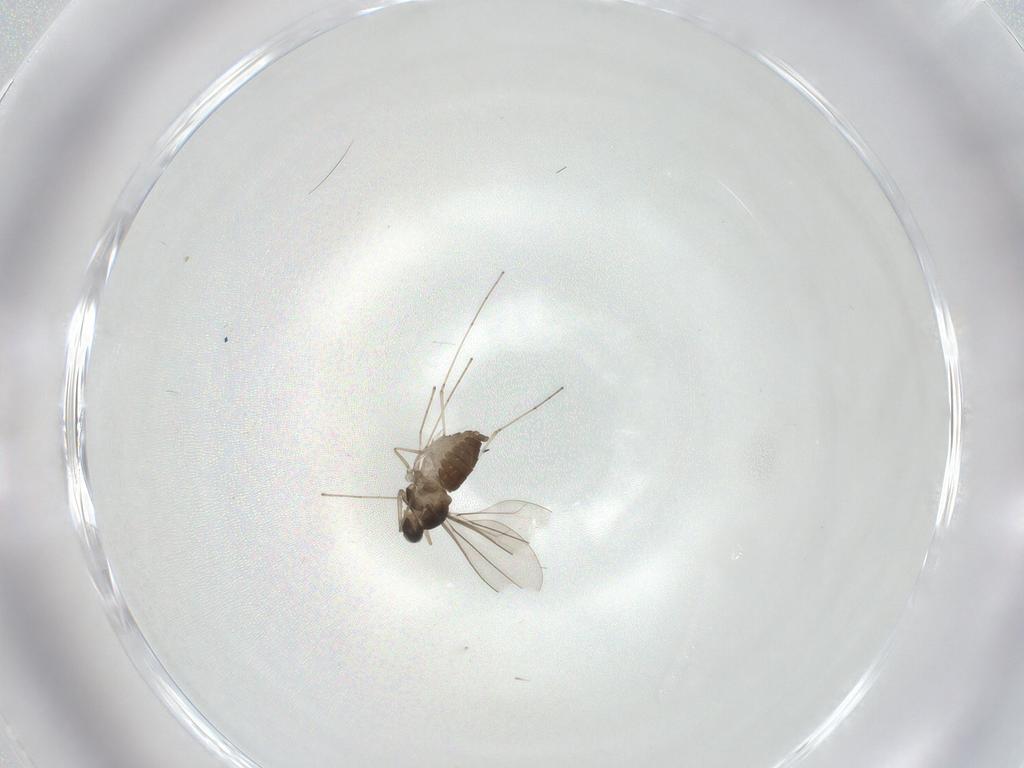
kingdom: Animalia
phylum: Arthropoda
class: Insecta
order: Diptera
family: Cecidomyiidae
